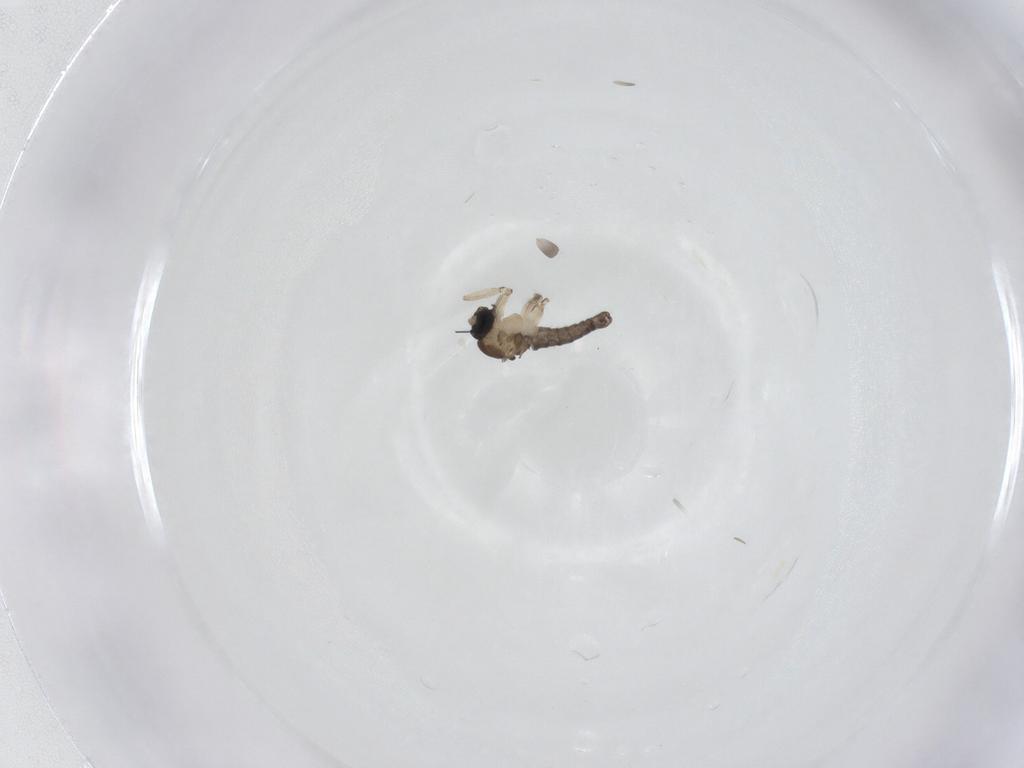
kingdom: Animalia
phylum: Arthropoda
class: Insecta
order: Diptera
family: Sciaridae
